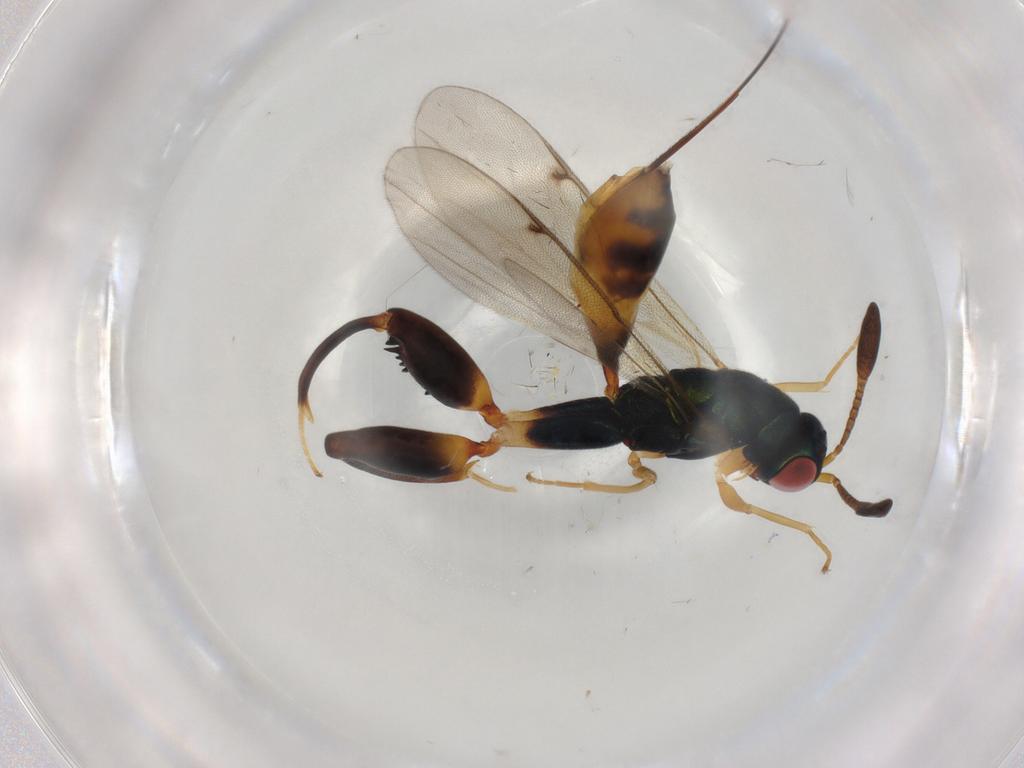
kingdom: Animalia
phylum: Arthropoda
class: Insecta
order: Hymenoptera
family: Torymidae
